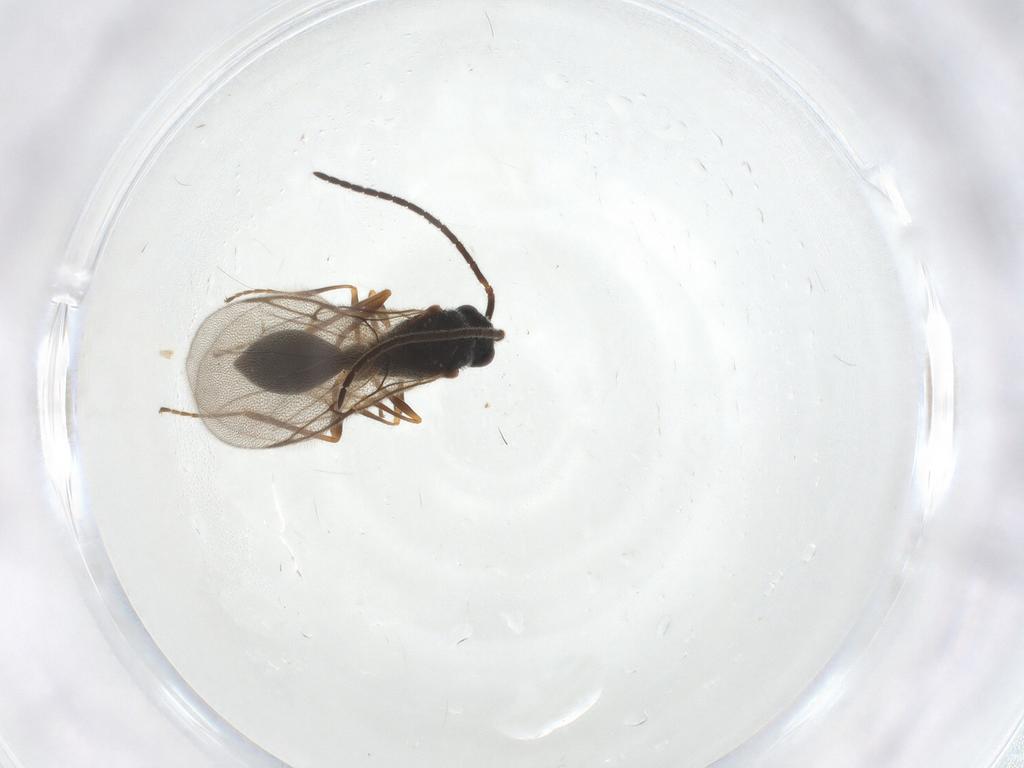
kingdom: Animalia
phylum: Arthropoda
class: Insecta
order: Hymenoptera
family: Diapriidae
